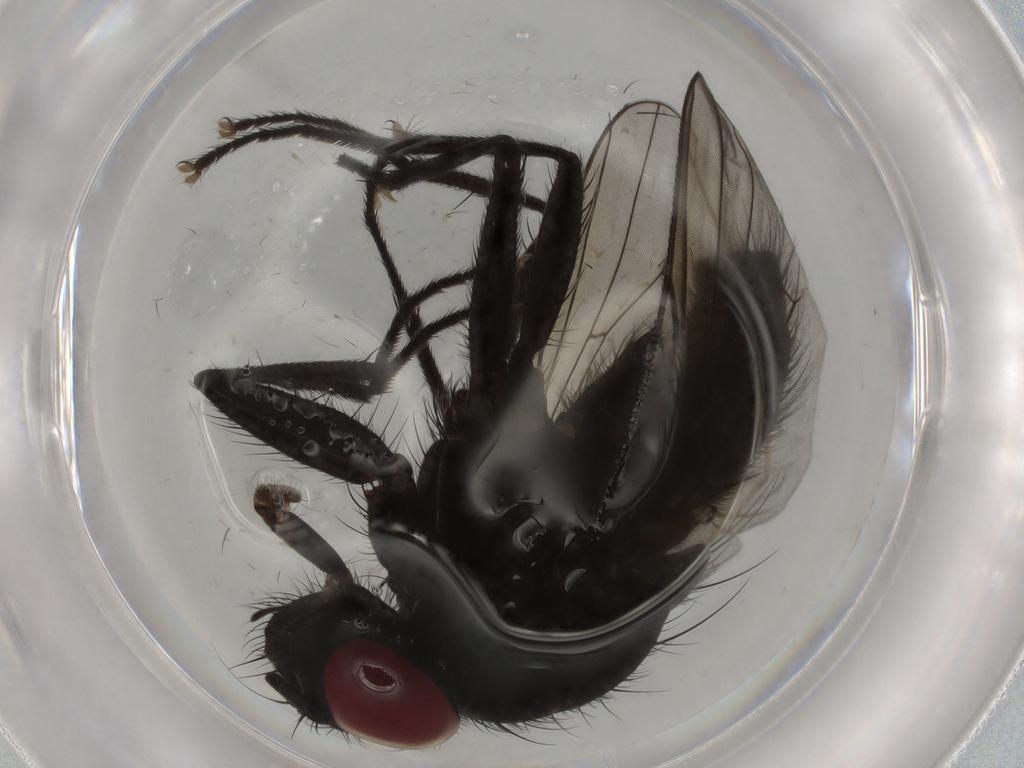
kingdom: Animalia
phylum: Arthropoda
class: Insecta
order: Diptera
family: Muscidae
